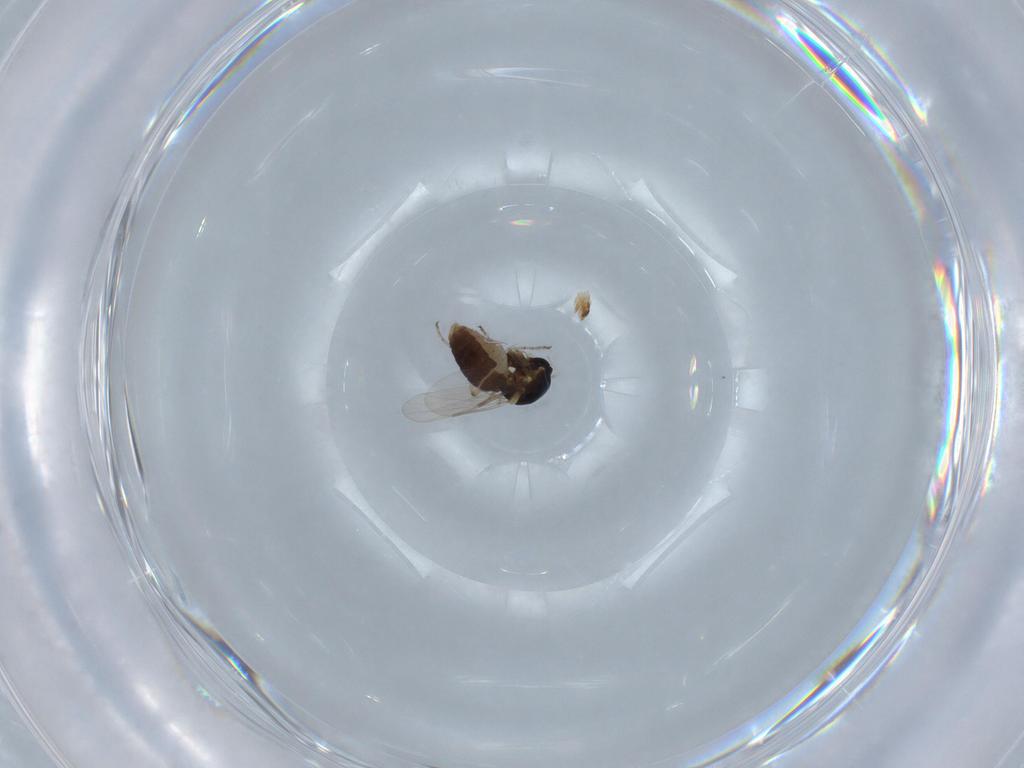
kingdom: Animalia
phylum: Arthropoda
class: Insecta
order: Diptera
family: Ceratopogonidae
